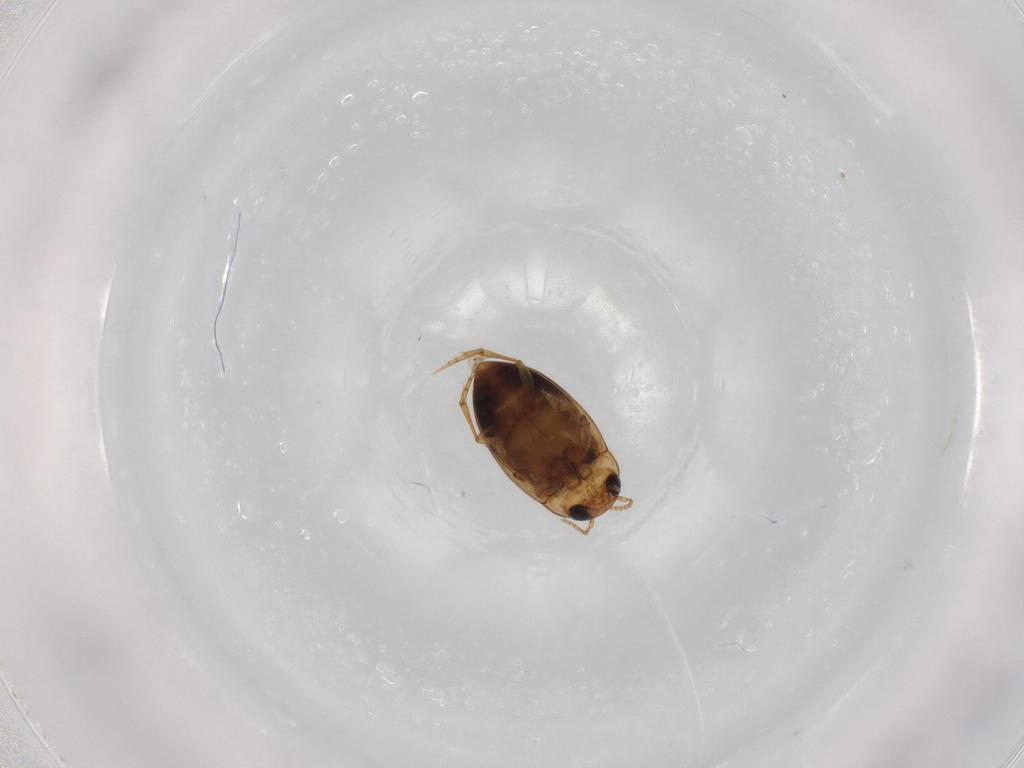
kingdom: Animalia
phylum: Arthropoda
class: Insecta
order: Coleoptera
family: Dytiscidae
